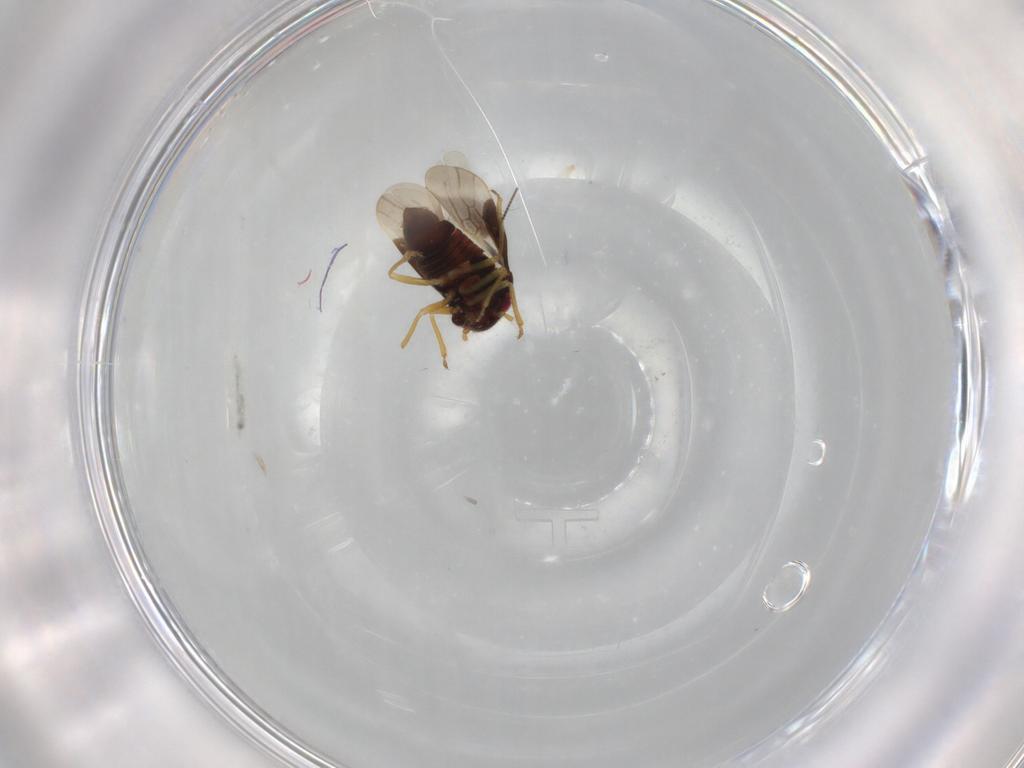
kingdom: Animalia
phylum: Arthropoda
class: Insecta
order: Hemiptera
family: Schizopteridae
